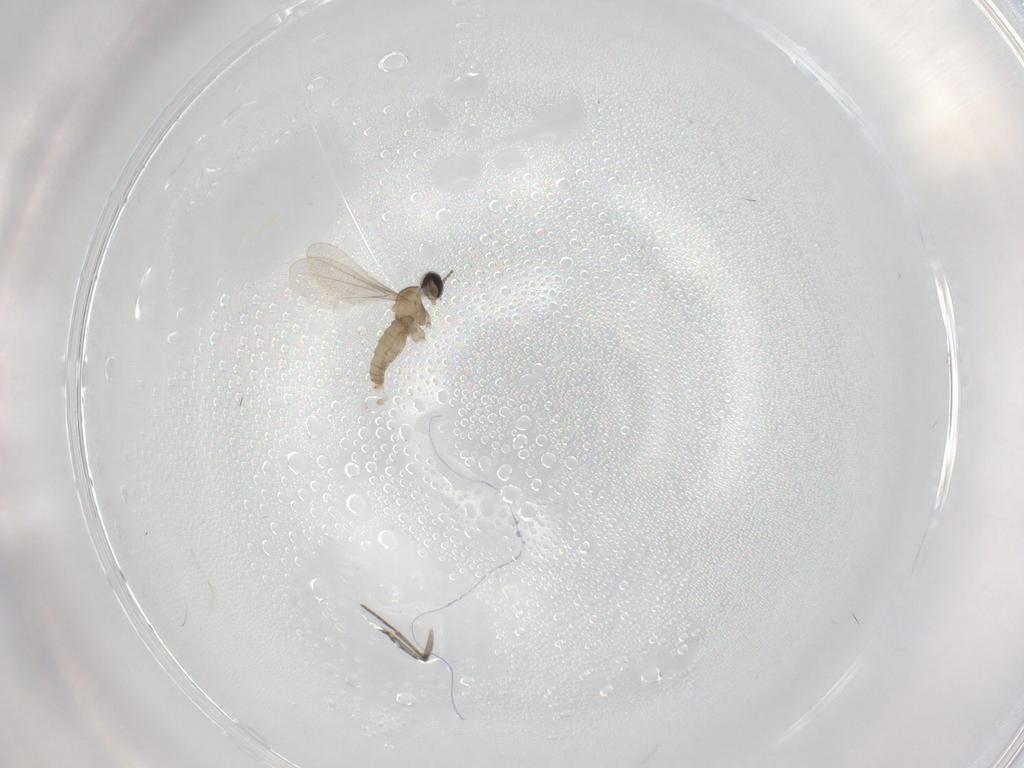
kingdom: Animalia
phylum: Arthropoda
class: Insecta
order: Diptera
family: Cecidomyiidae
